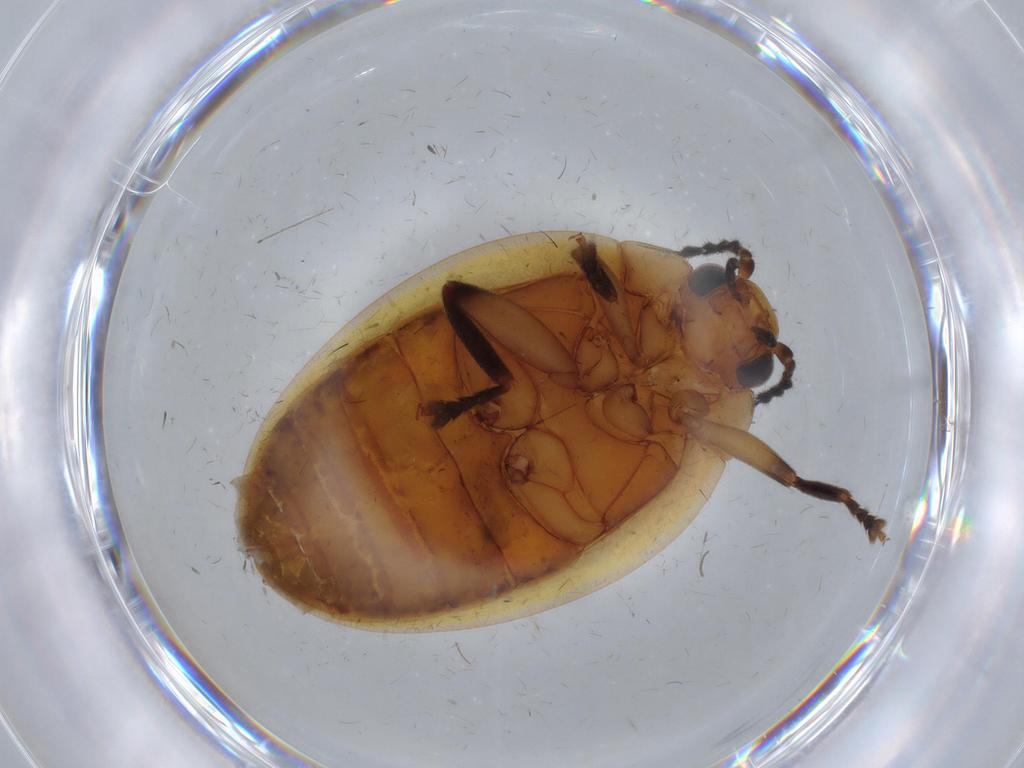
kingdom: Animalia
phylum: Arthropoda
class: Insecta
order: Coleoptera
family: Scirtidae
